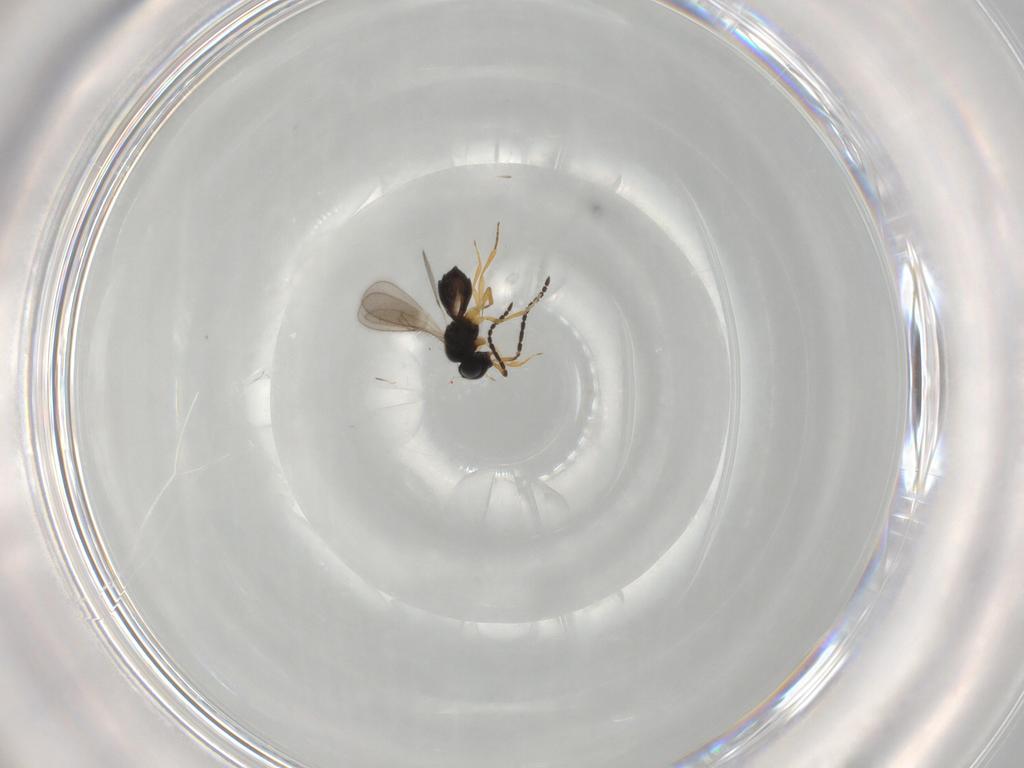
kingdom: Animalia
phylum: Arthropoda
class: Insecta
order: Hymenoptera
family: Scelionidae
